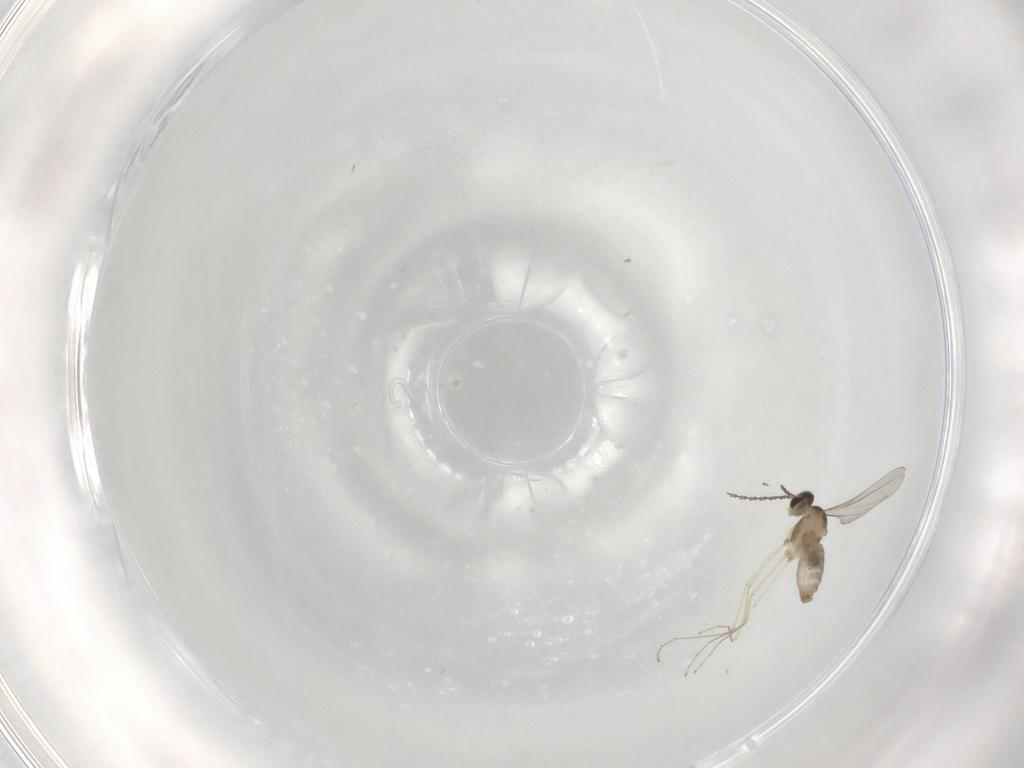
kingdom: Animalia
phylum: Arthropoda
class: Insecta
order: Diptera
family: Cecidomyiidae
